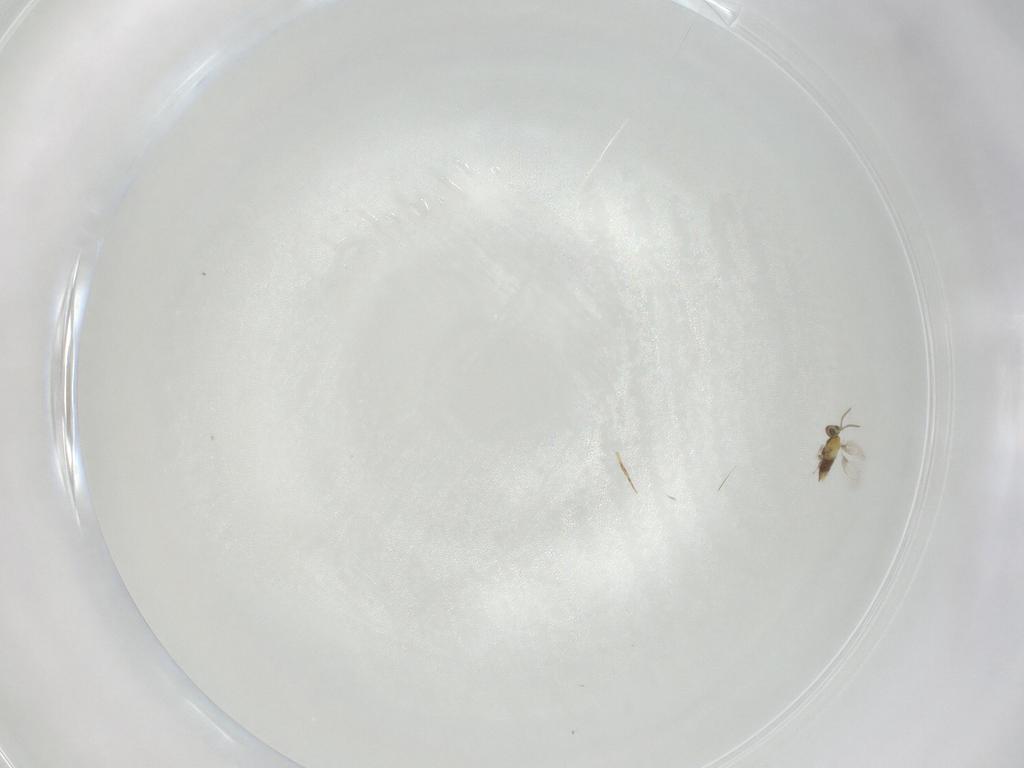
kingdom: Animalia
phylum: Arthropoda
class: Insecta
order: Hymenoptera
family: Aphelinidae
